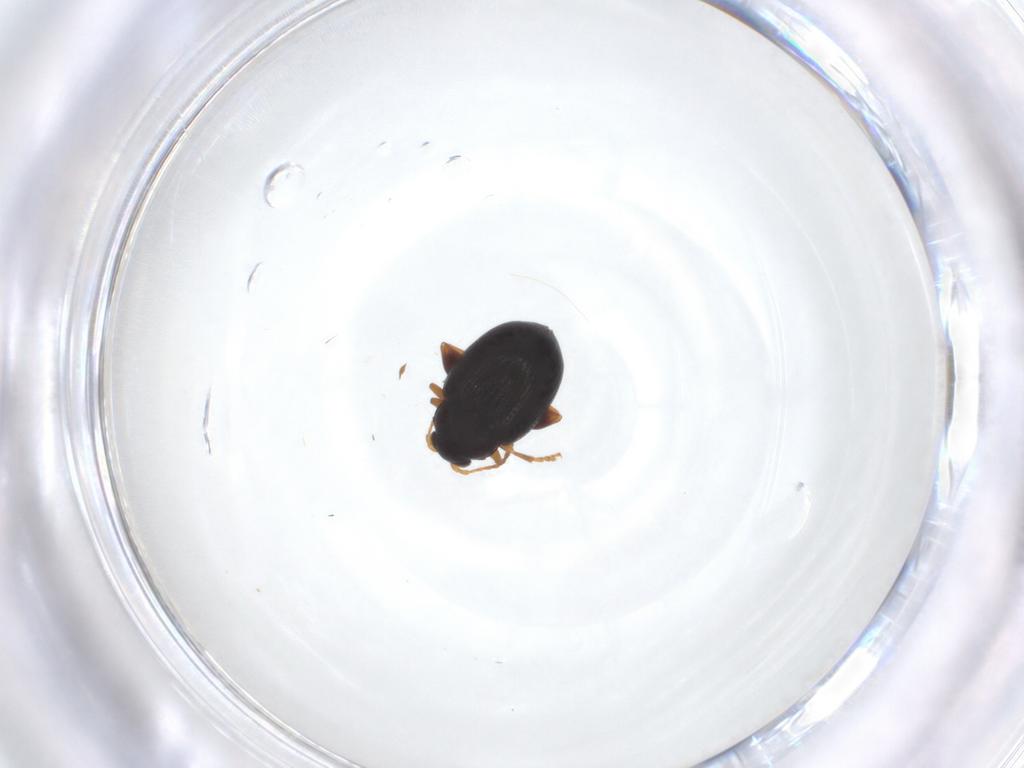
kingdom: Animalia
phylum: Arthropoda
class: Insecta
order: Coleoptera
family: Chrysomelidae
